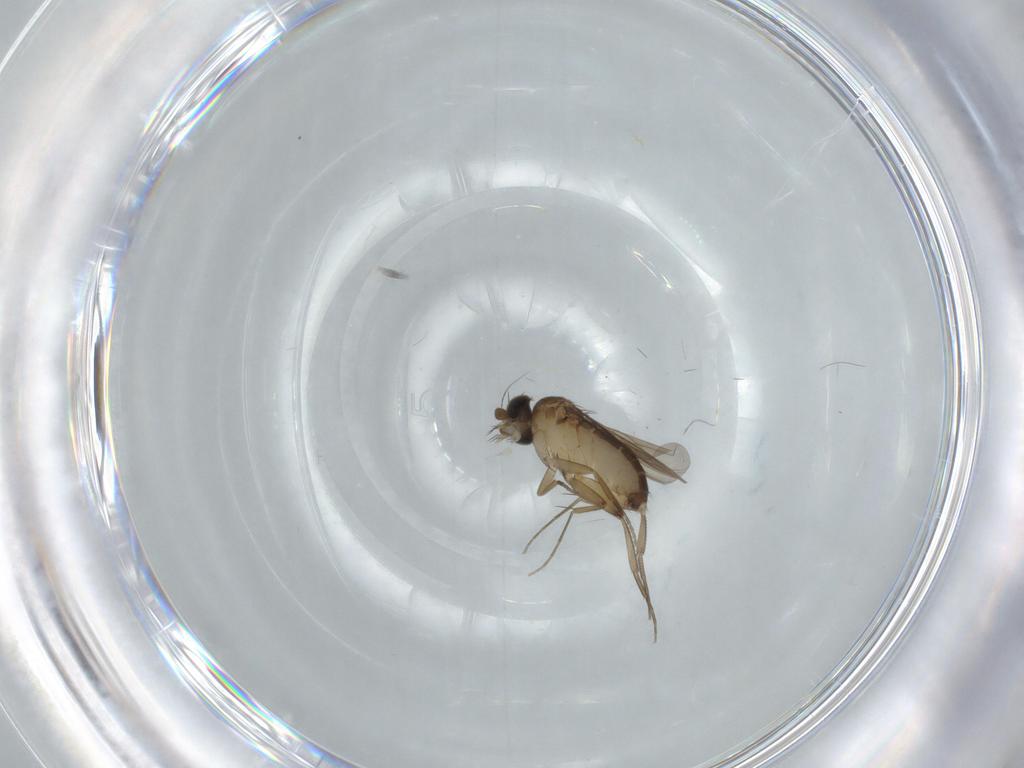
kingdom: Animalia
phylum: Arthropoda
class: Insecta
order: Diptera
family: Phoridae
